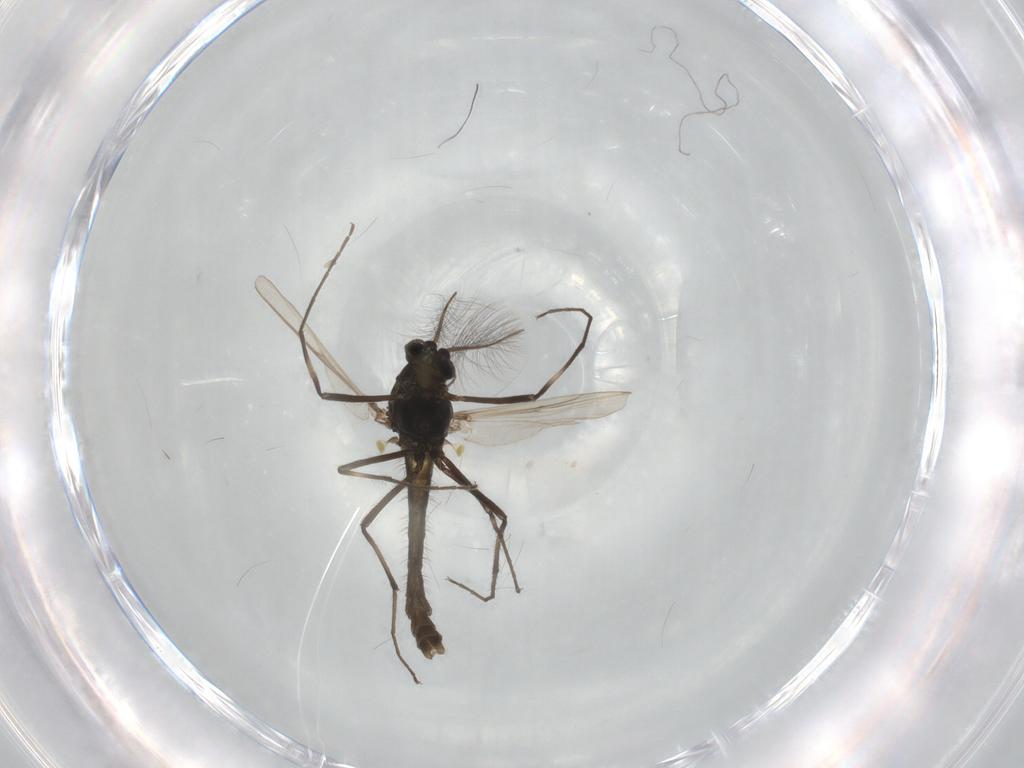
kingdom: Animalia
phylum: Arthropoda
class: Insecta
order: Diptera
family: Chironomidae
